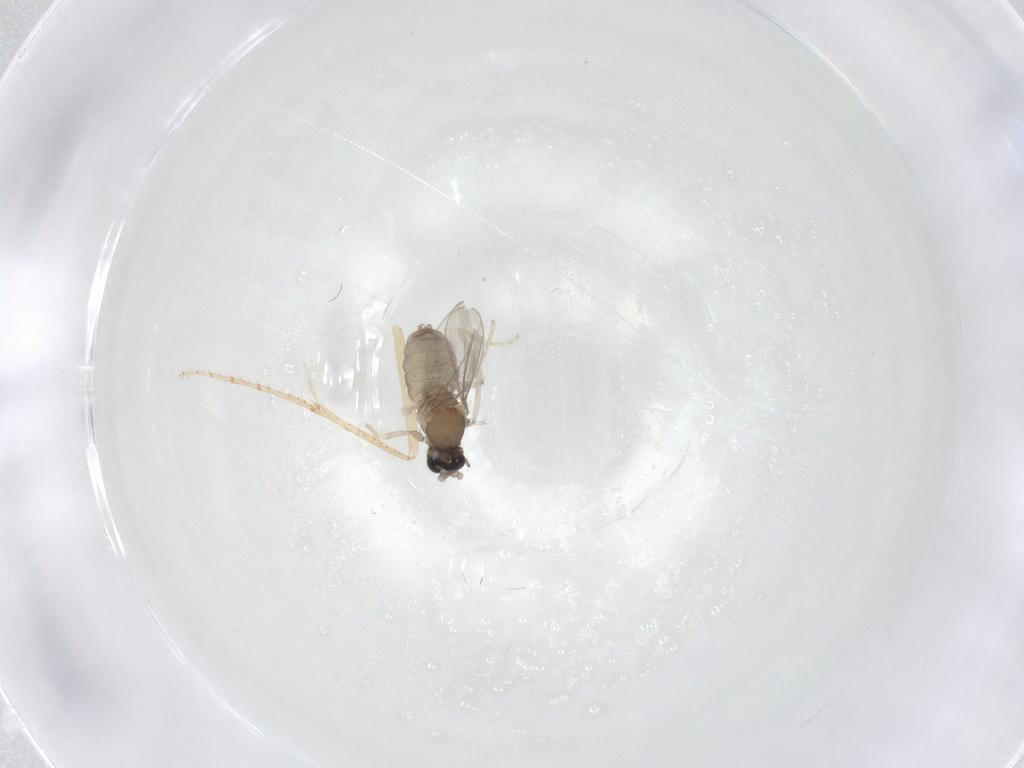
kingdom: Animalia
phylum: Arthropoda
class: Insecta
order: Diptera
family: Cecidomyiidae
